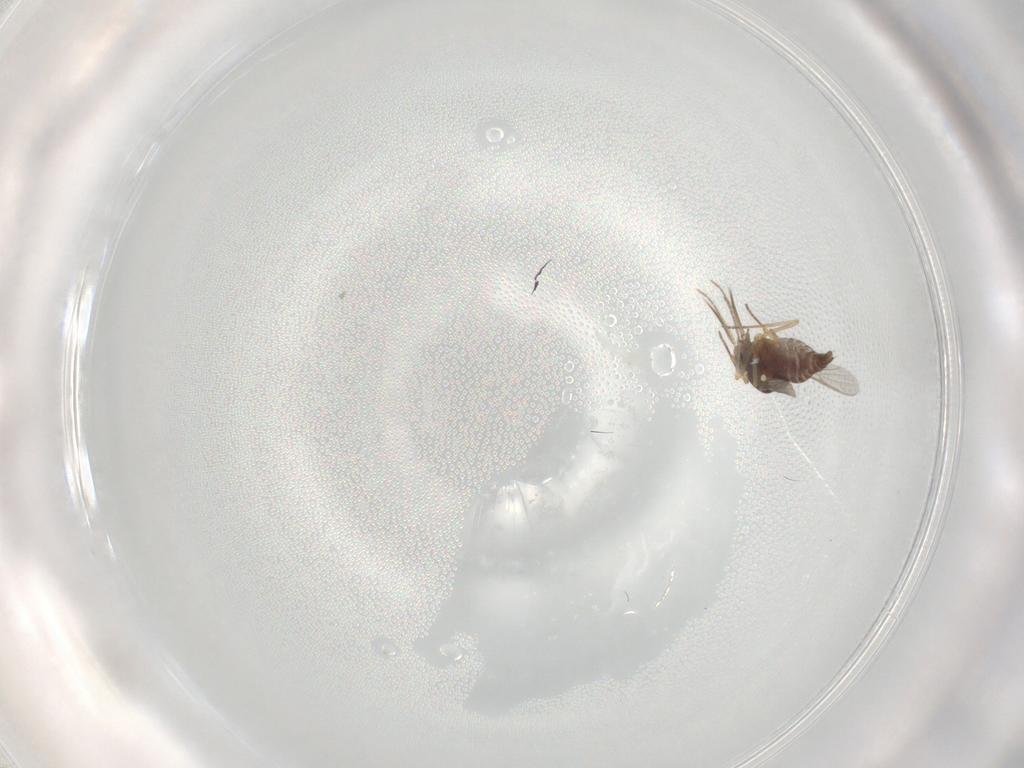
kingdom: Animalia
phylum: Arthropoda
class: Insecta
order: Diptera
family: Ceratopogonidae
